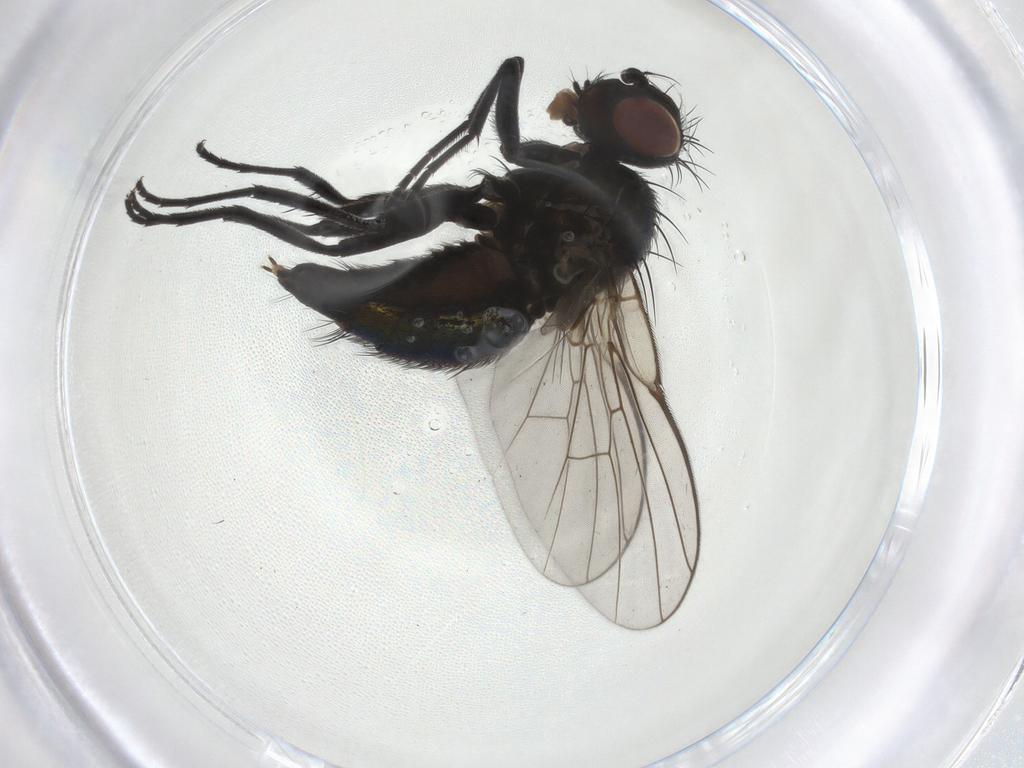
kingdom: Animalia
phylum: Arthropoda
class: Insecta
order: Diptera
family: Agromyzidae
